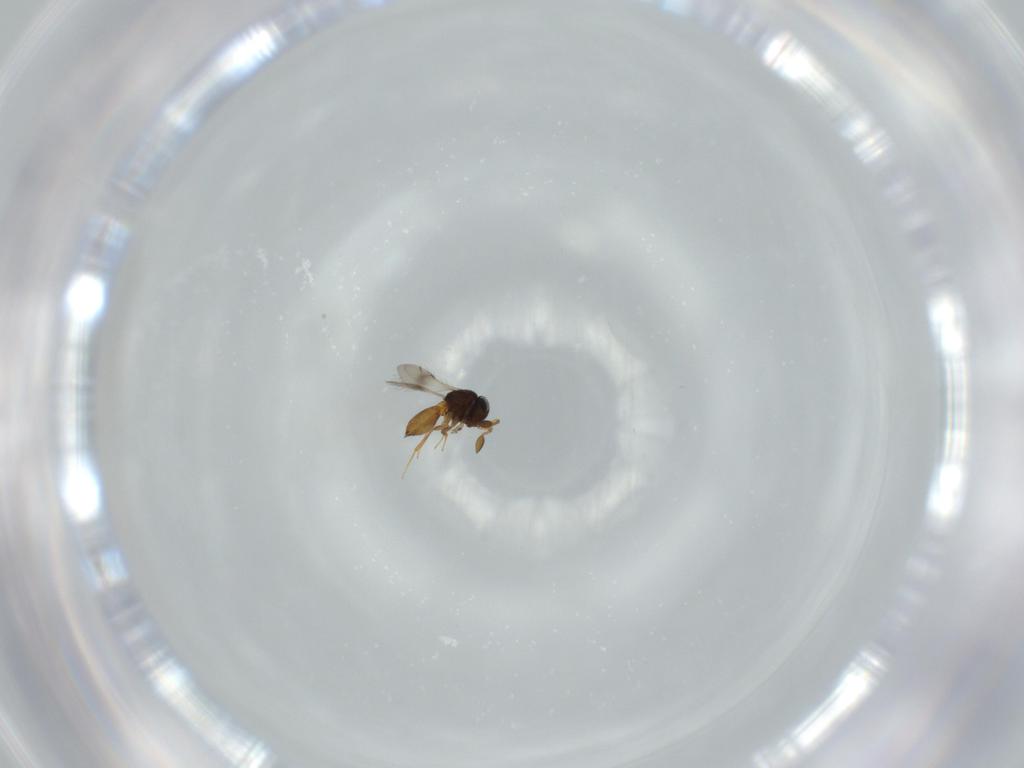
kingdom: Animalia
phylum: Arthropoda
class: Insecta
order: Hymenoptera
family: Scelionidae
